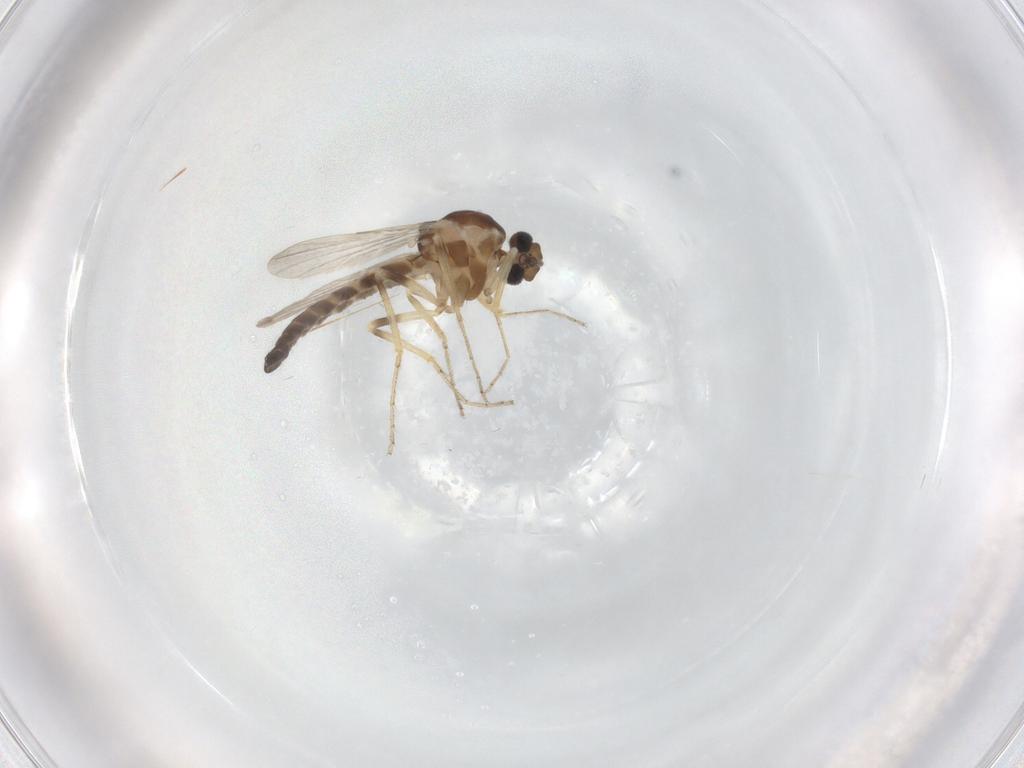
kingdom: Animalia
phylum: Arthropoda
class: Insecta
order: Diptera
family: Ceratopogonidae
